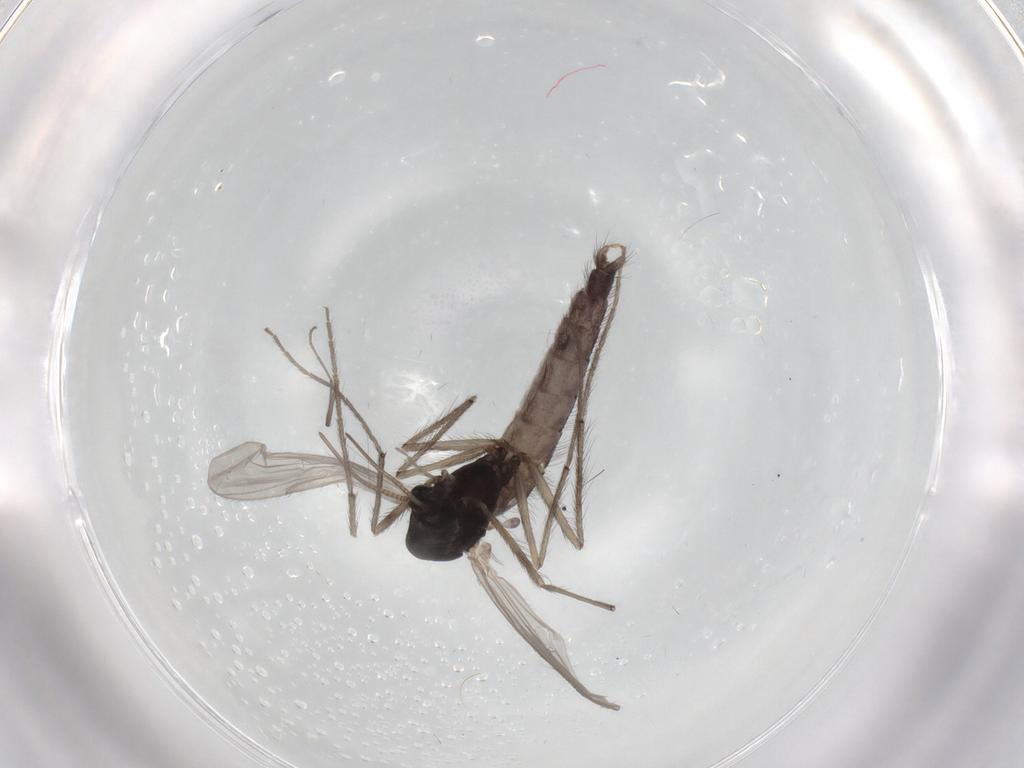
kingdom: Animalia
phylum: Arthropoda
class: Insecta
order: Diptera
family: Chironomidae
